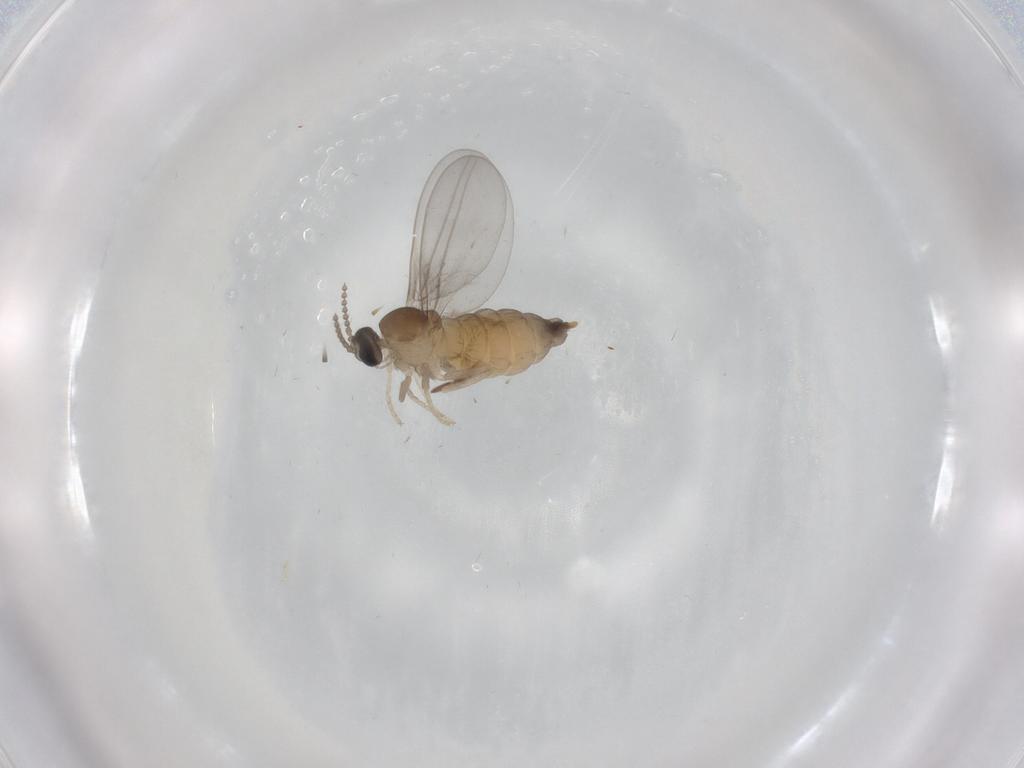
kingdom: Animalia
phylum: Arthropoda
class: Insecta
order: Diptera
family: Cecidomyiidae
